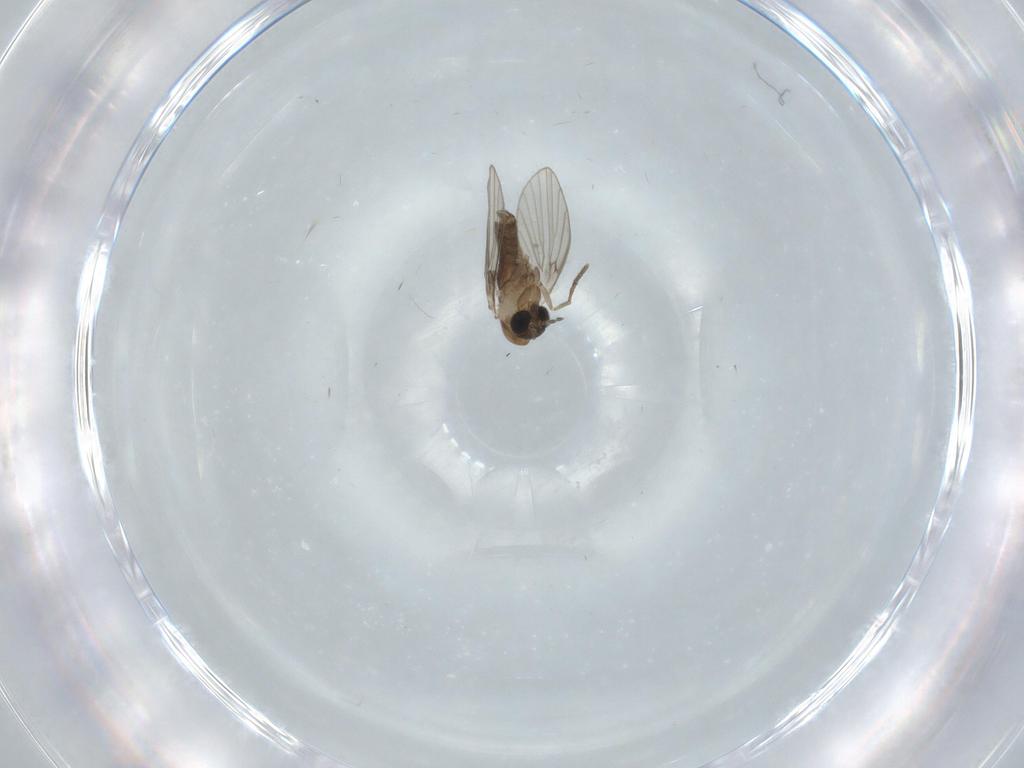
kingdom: Animalia
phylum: Arthropoda
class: Insecta
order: Diptera
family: Psychodidae
